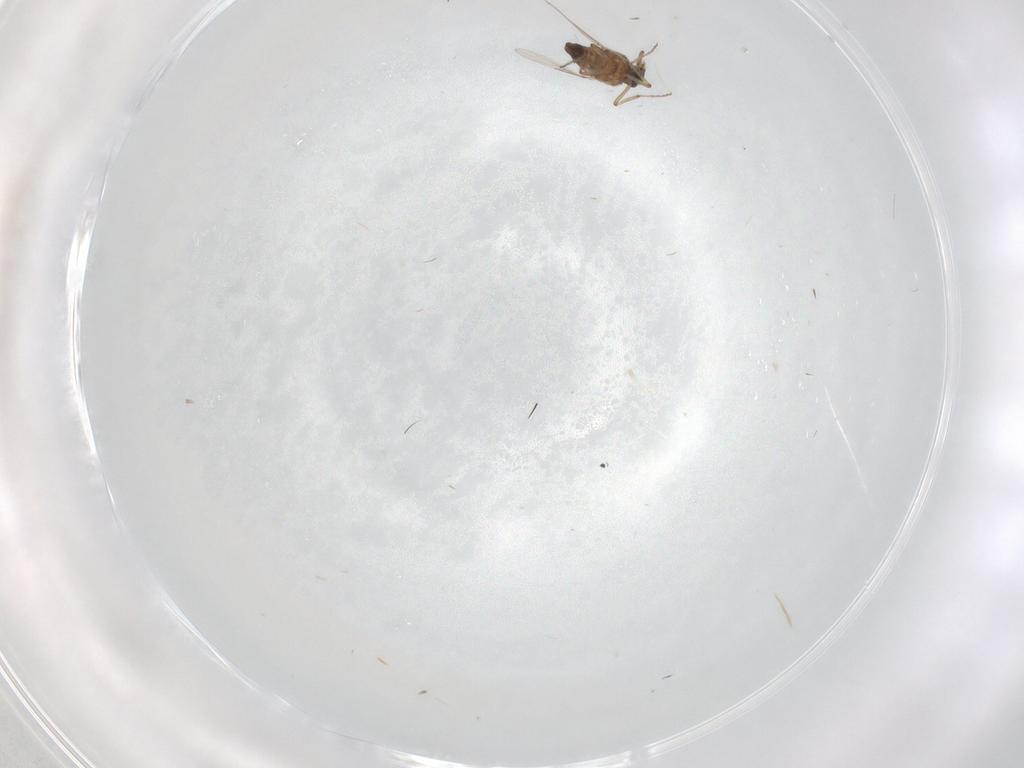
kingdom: Animalia
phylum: Arthropoda
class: Insecta
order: Diptera
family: Ceratopogonidae
